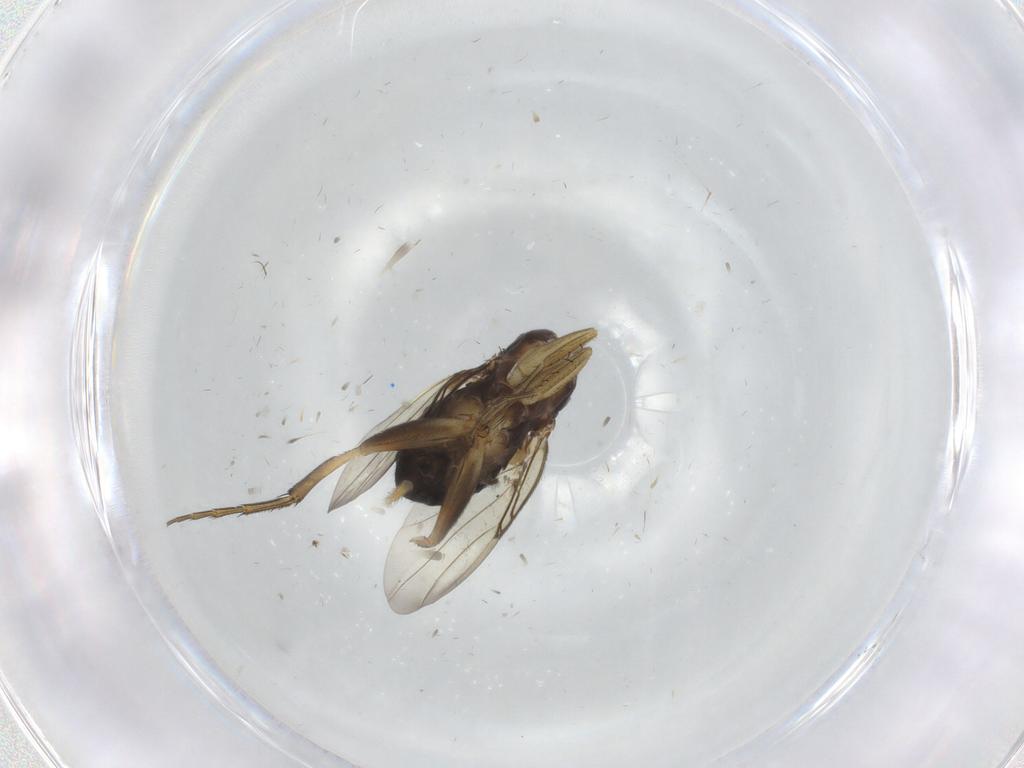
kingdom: Animalia
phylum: Arthropoda
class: Insecta
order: Diptera
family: Phoridae
